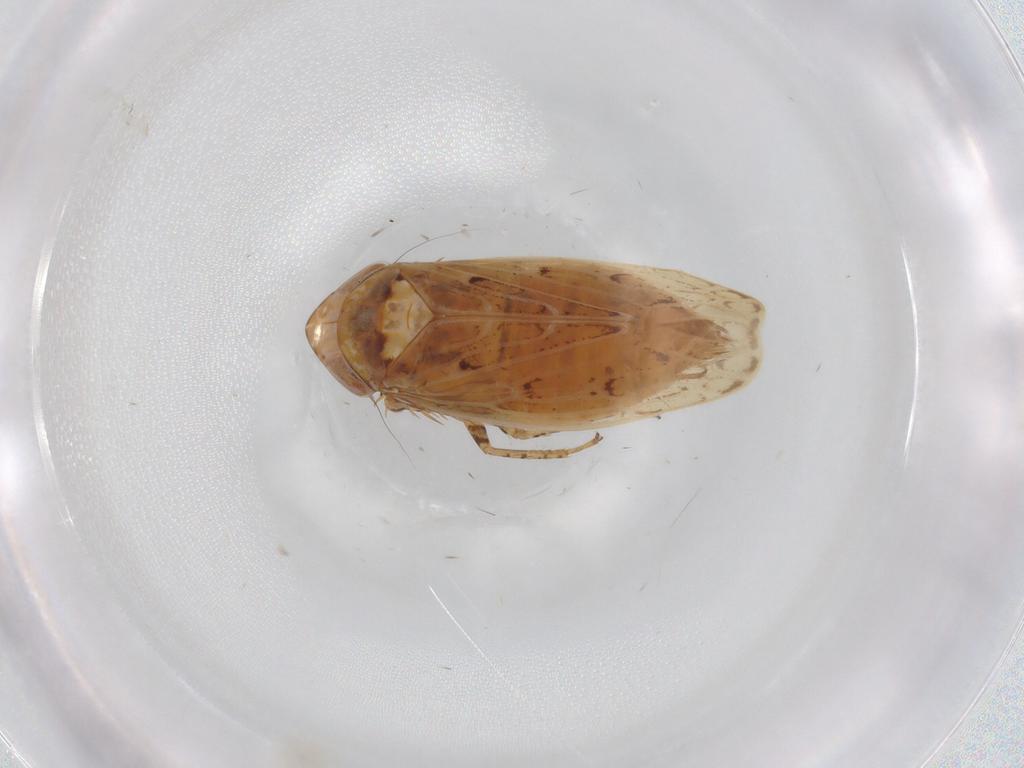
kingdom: Animalia
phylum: Arthropoda
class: Insecta
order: Hemiptera
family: Cicadellidae
